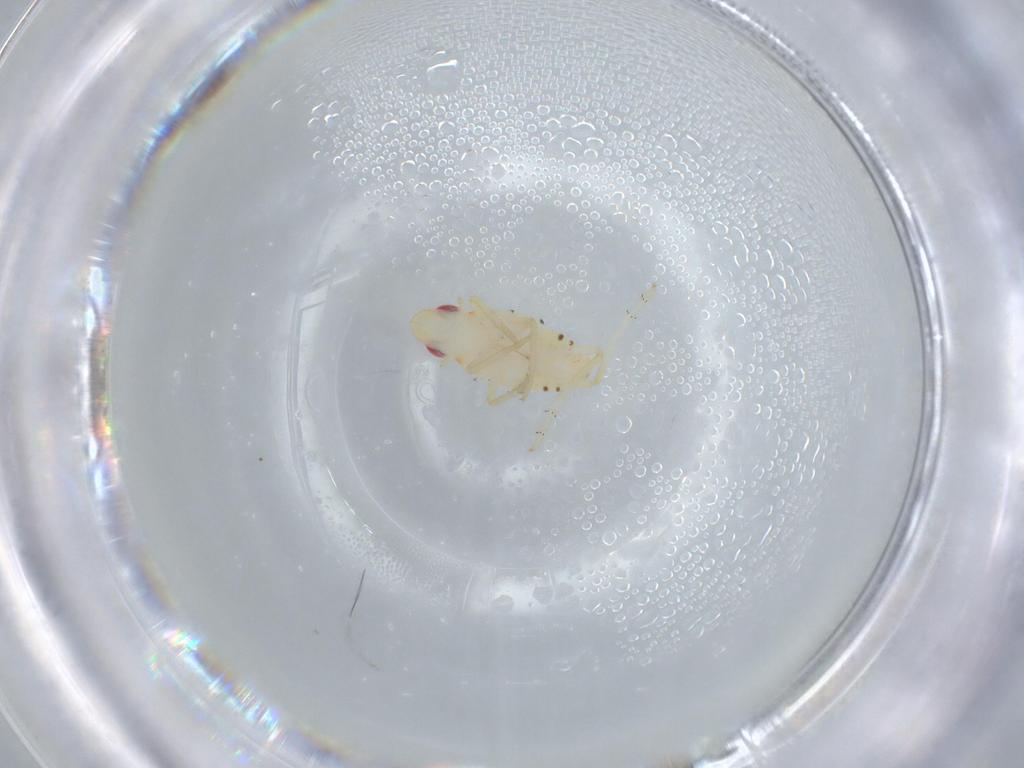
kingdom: Animalia
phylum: Arthropoda
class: Insecta
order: Hemiptera
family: Tropiduchidae
